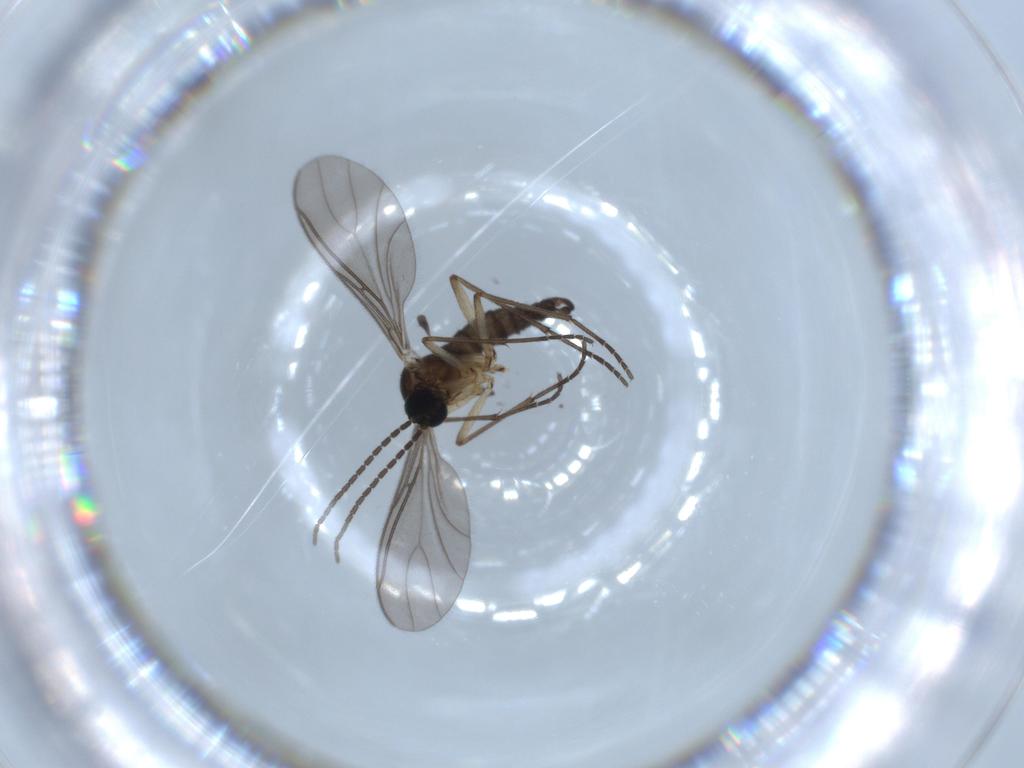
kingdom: Animalia
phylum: Arthropoda
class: Insecta
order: Diptera
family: Sciaridae
